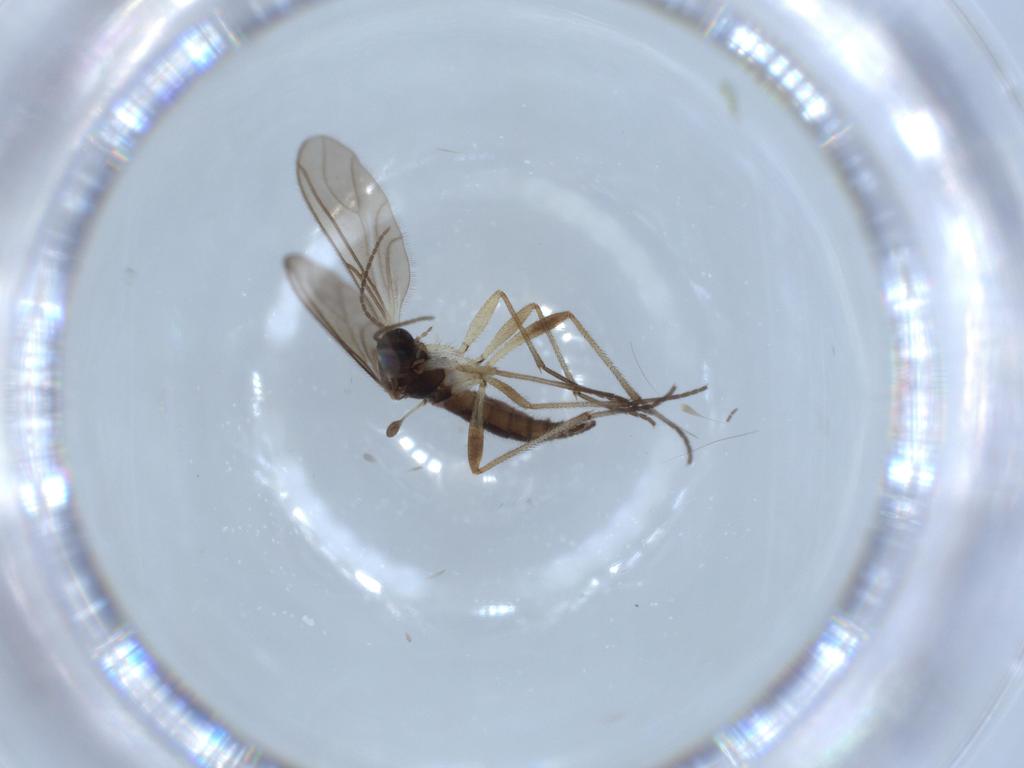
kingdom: Animalia
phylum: Arthropoda
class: Insecta
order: Diptera
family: Sciaridae
